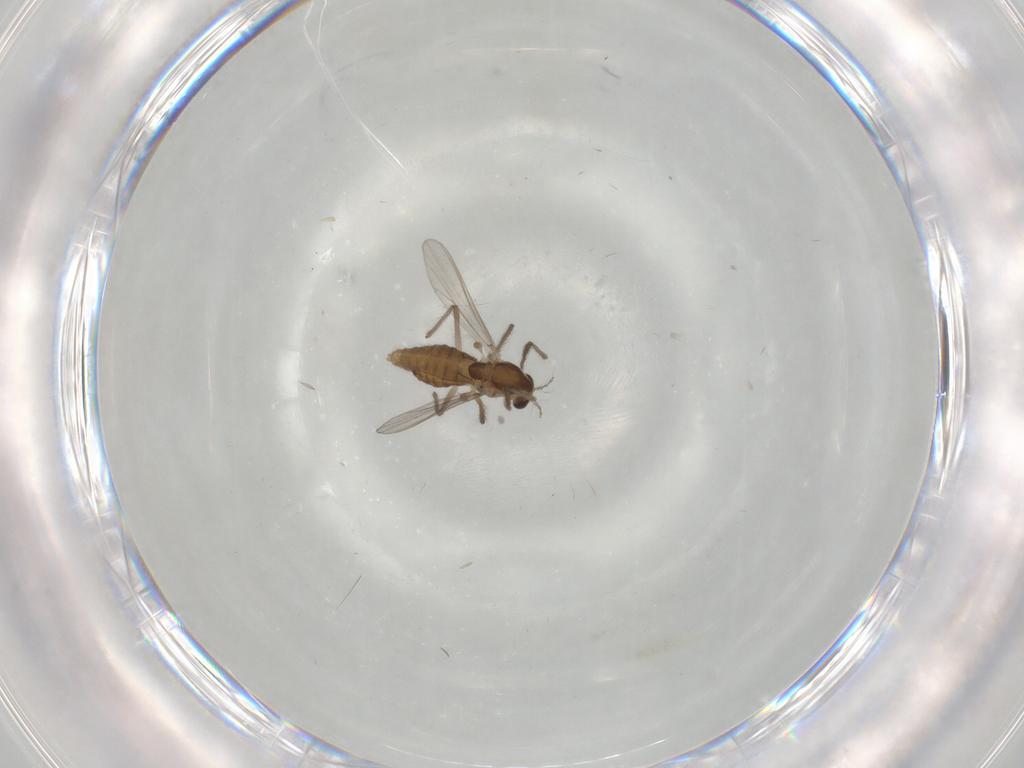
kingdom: Animalia
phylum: Arthropoda
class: Insecta
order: Diptera
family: Chironomidae
